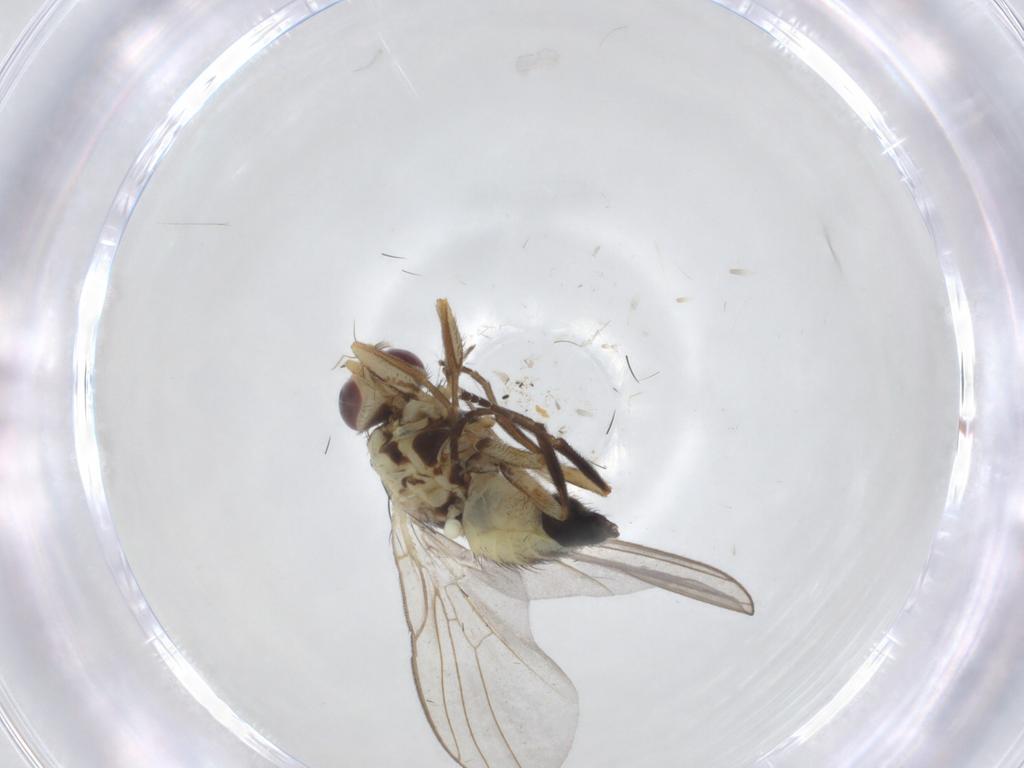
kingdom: Animalia
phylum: Arthropoda
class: Insecta
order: Diptera
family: Agromyzidae
